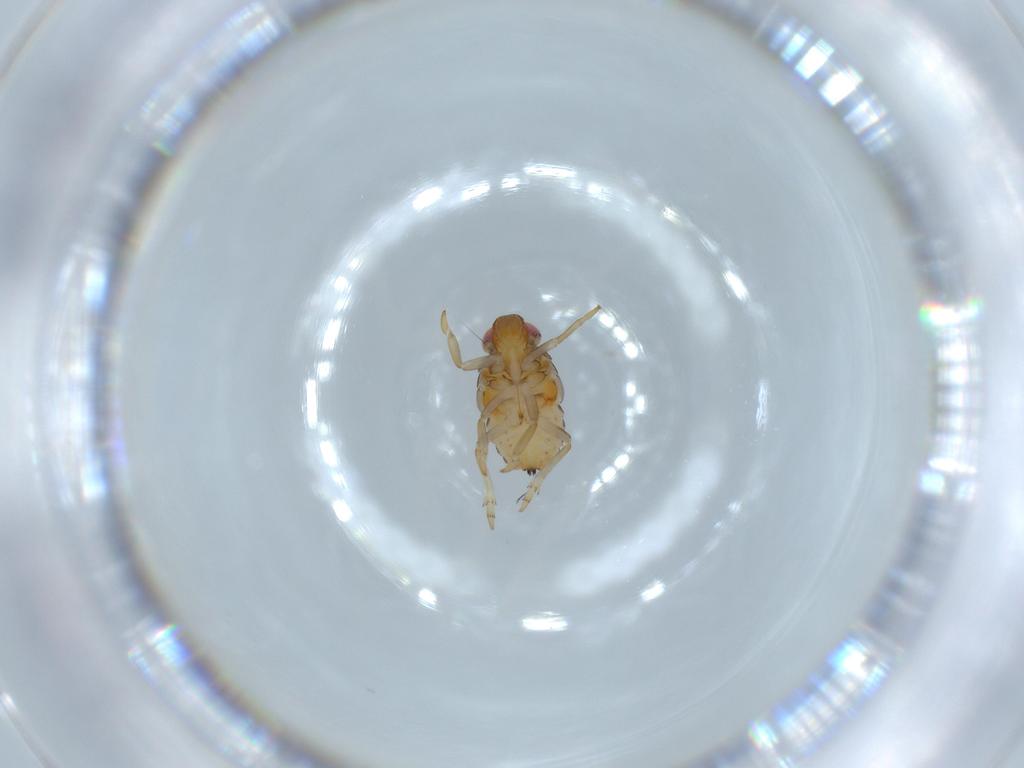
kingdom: Animalia
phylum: Arthropoda
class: Insecta
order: Hemiptera
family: Issidae
